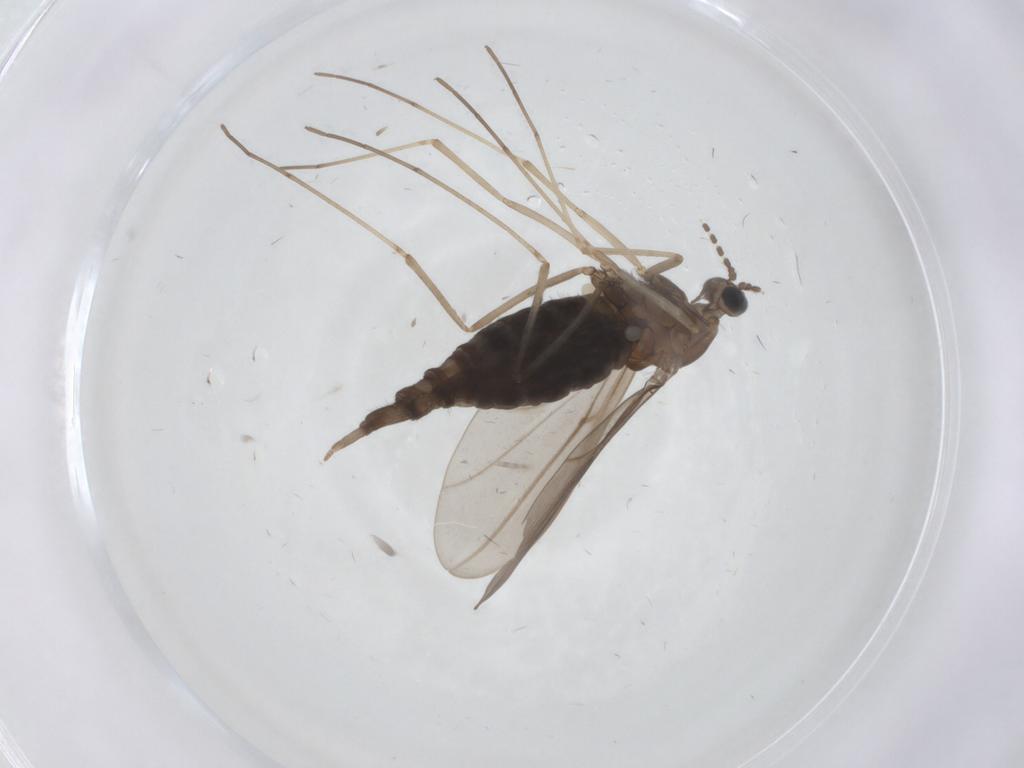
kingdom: Animalia
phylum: Arthropoda
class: Insecta
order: Diptera
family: Cecidomyiidae
